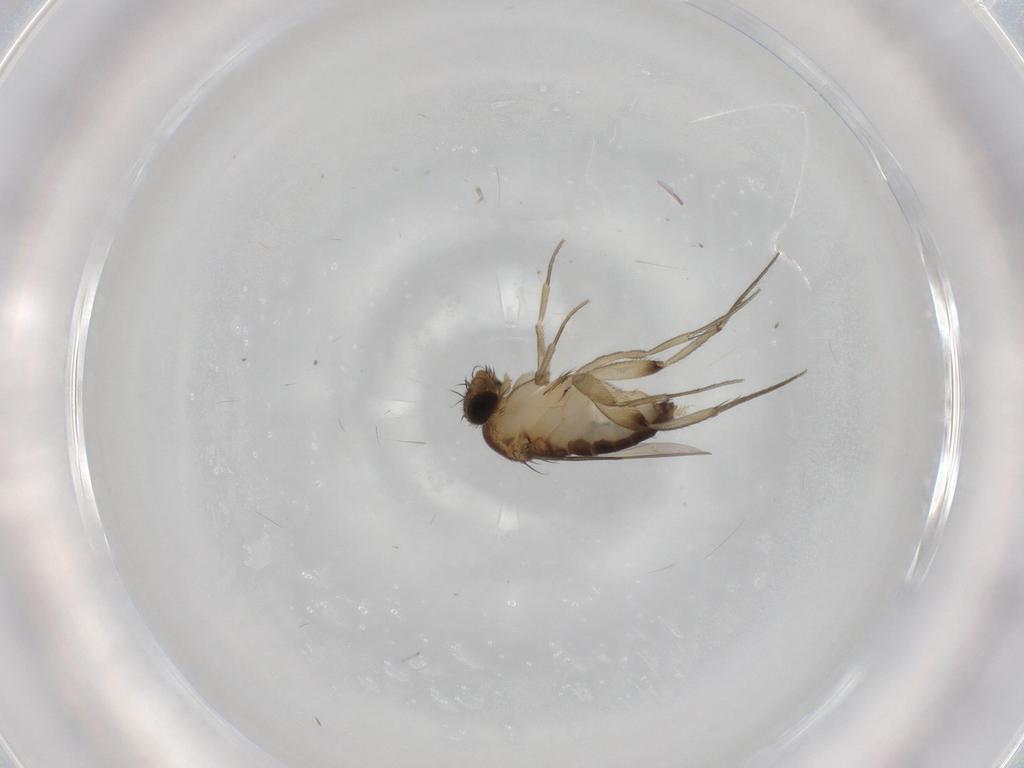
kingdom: Animalia
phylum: Arthropoda
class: Insecta
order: Diptera
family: Phoridae
